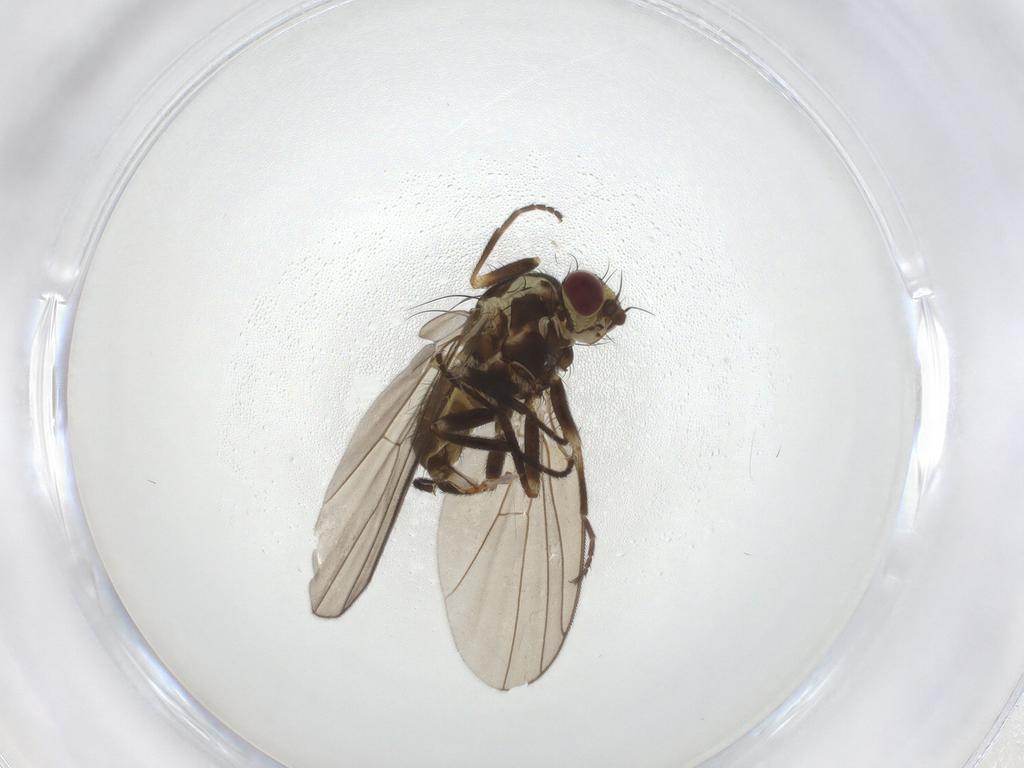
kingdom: Animalia
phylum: Arthropoda
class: Insecta
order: Diptera
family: Agromyzidae
